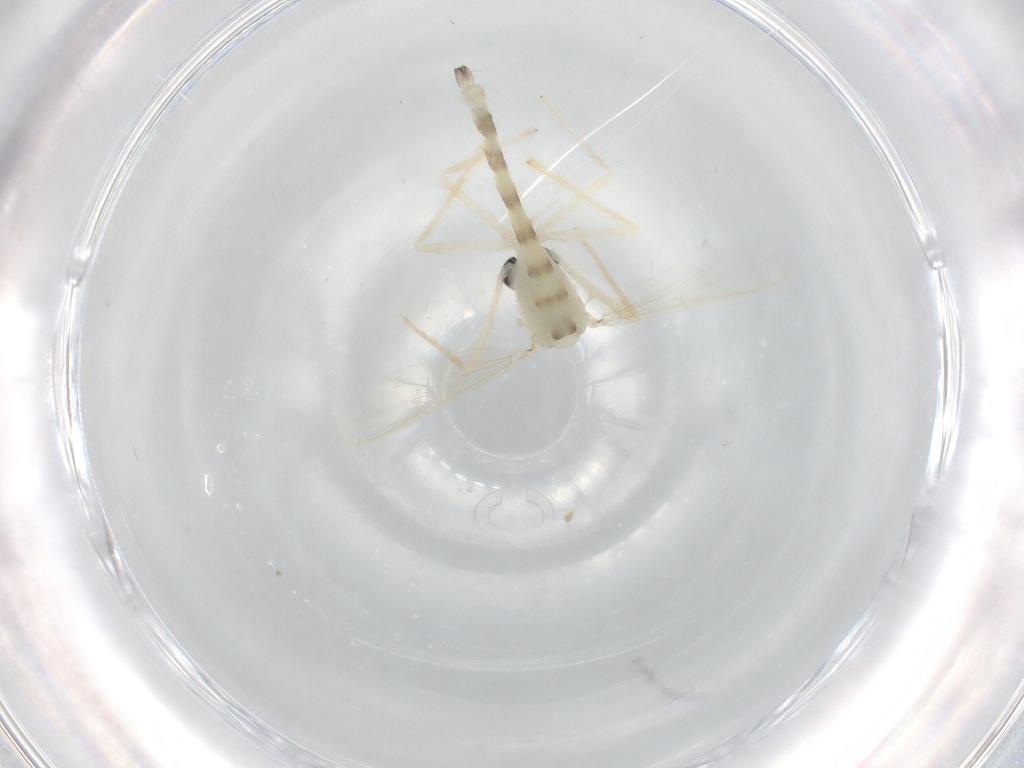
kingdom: Animalia
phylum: Arthropoda
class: Insecta
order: Diptera
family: Chironomidae
